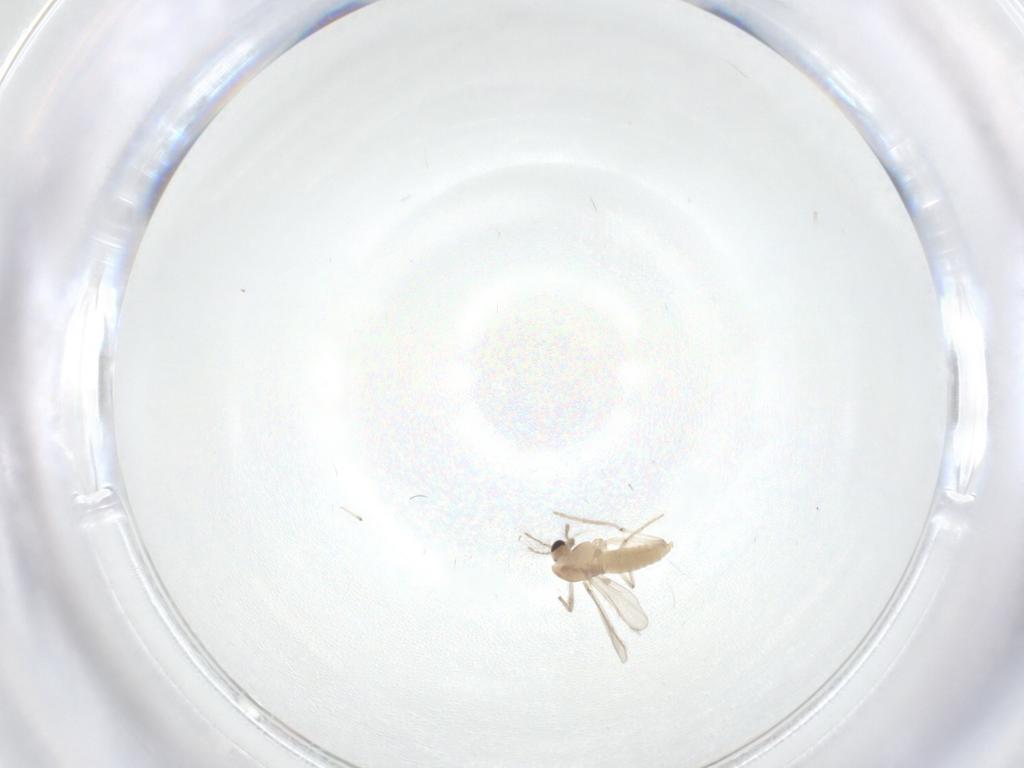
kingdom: Animalia
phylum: Arthropoda
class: Insecta
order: Diptera
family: Chironomidae
